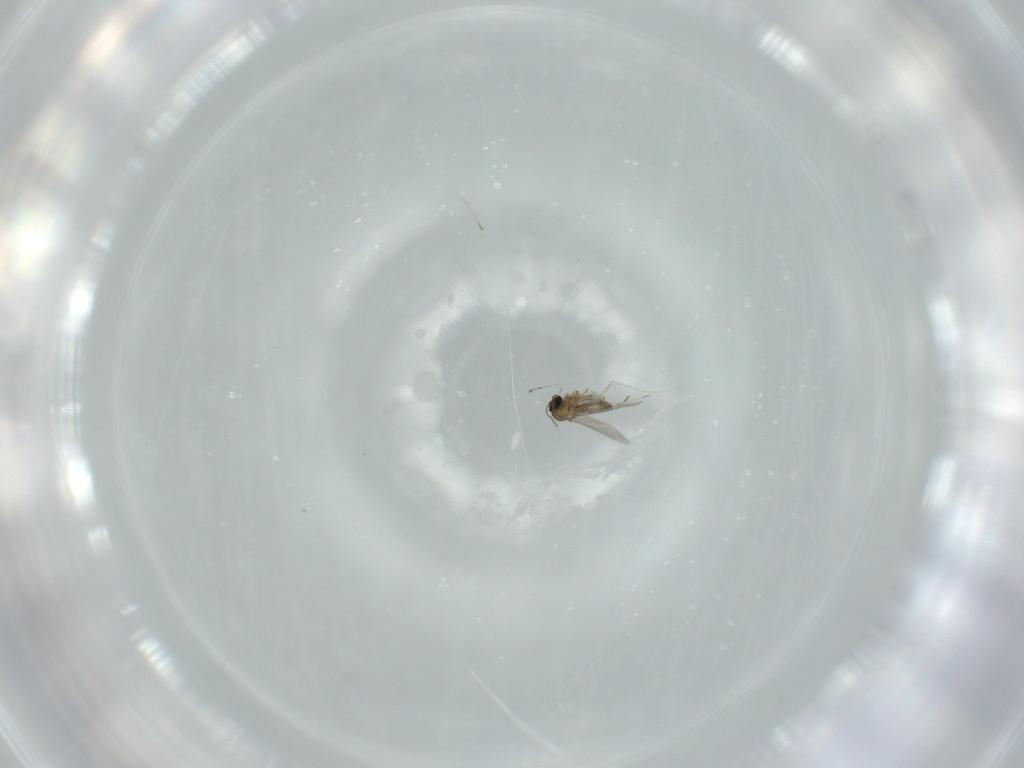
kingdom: Animalia
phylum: Arthropoda
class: Insecta
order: Diptera
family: Cecidomyiidae
